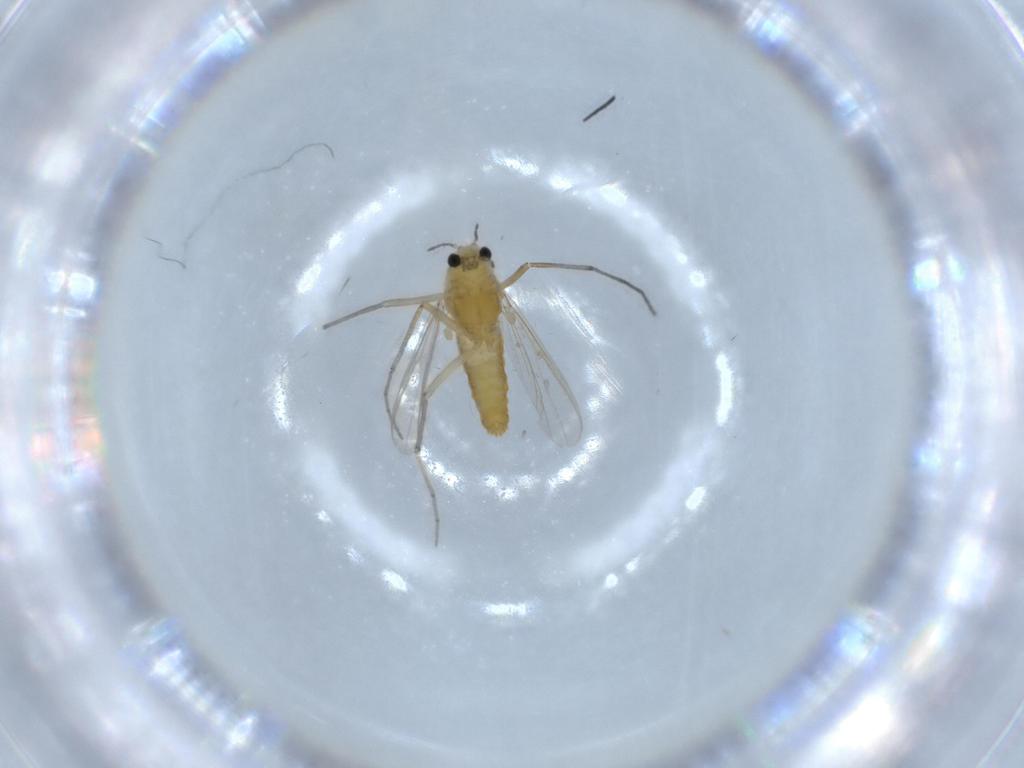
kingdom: Animalia
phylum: Arthropoda
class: Insecta
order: Diptera
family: Chironomidae
